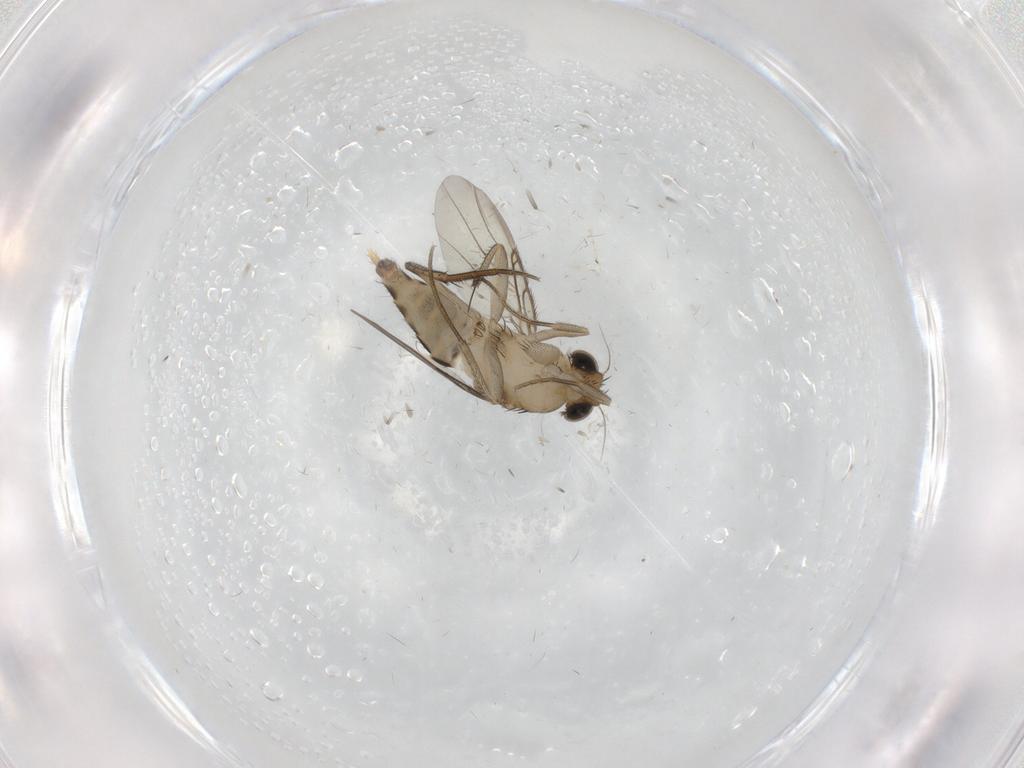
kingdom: Animalia
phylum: Arthropoda
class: Insecta
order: Diptera
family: Phoridae
